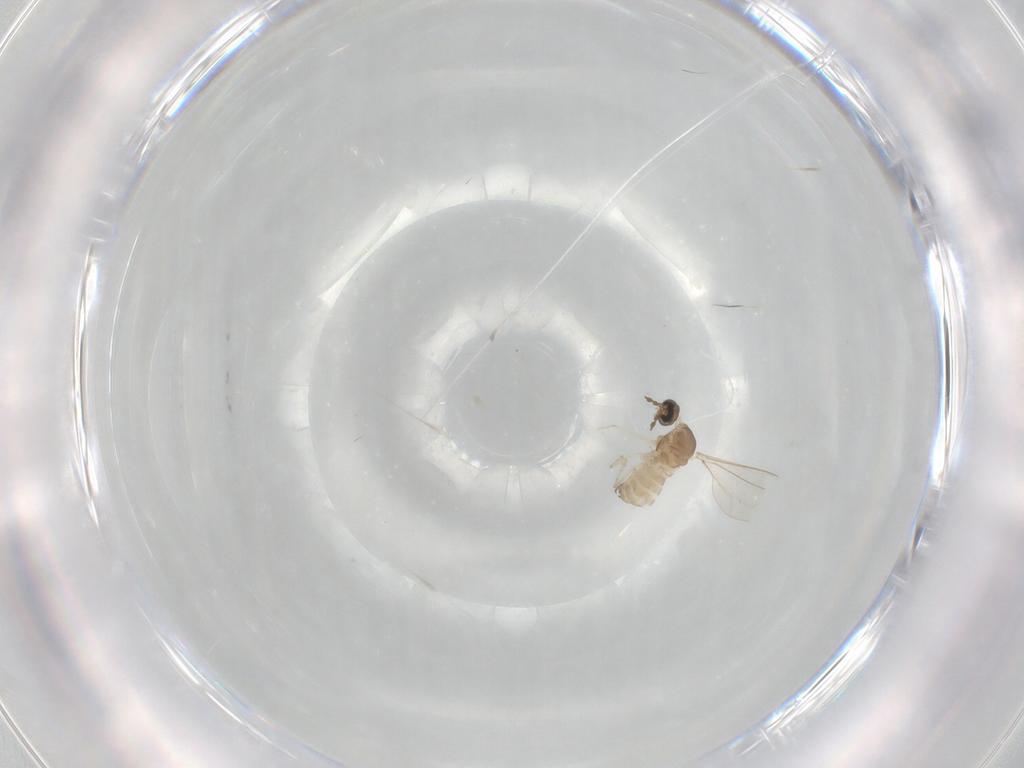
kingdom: Animalia
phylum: Arthropoda
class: Insecta
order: Diptera
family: Cecidomyiidae
